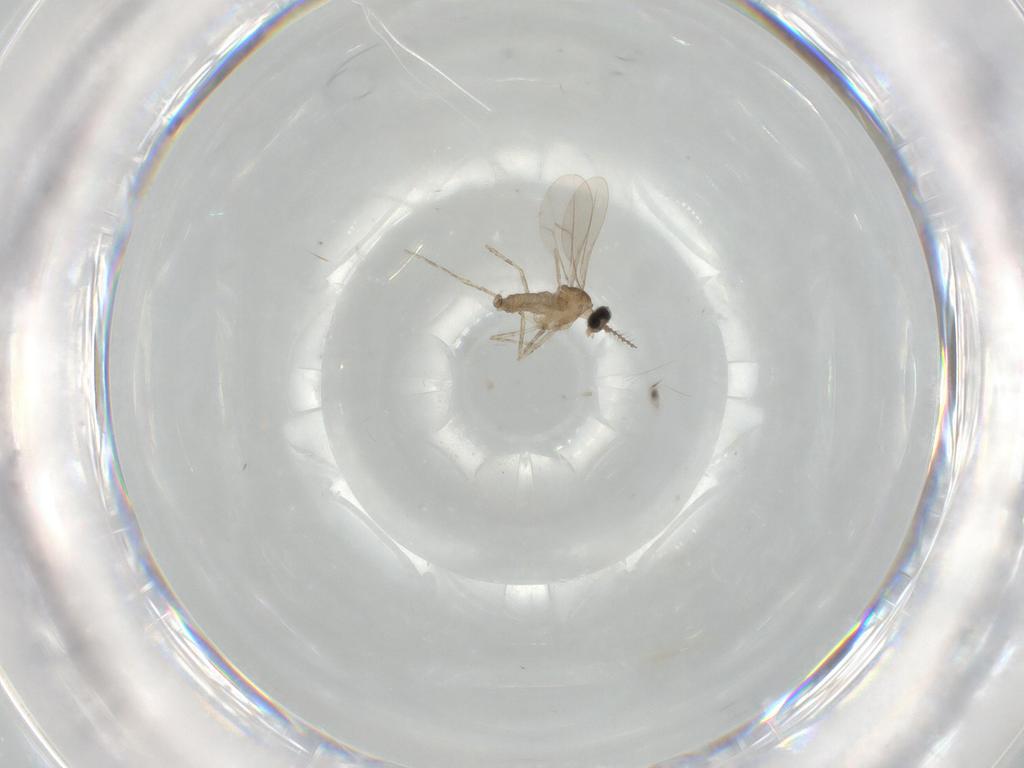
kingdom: Animalia
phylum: Arthropoda
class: Insecta
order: Diptera
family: Cecidomyiidae
